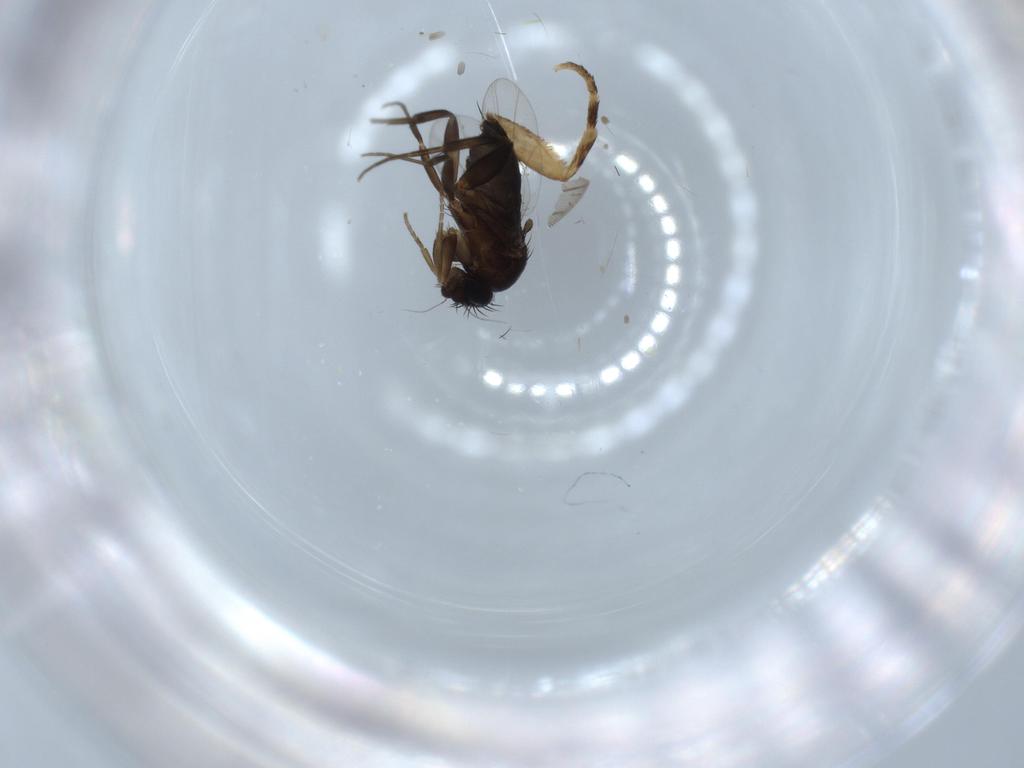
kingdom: Animalia
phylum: Arthropoda
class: Insecta
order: Diptera
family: Phoridae
